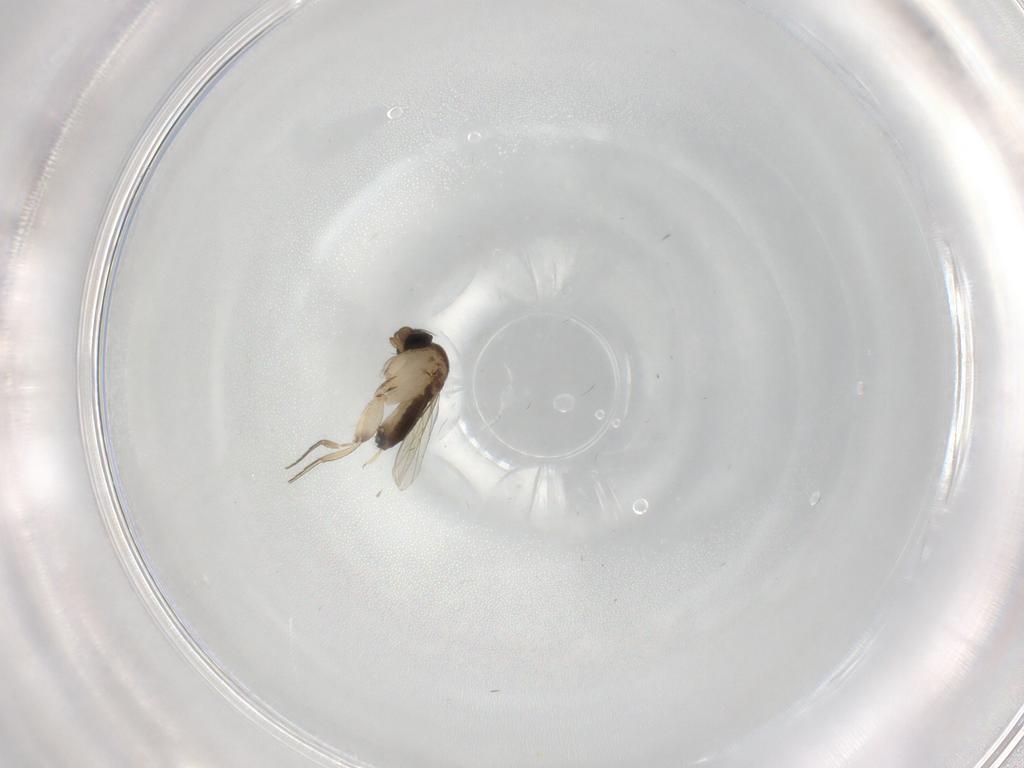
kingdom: Animalia
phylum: Arthropoda
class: Insecta
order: Diptera
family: Phoridae
